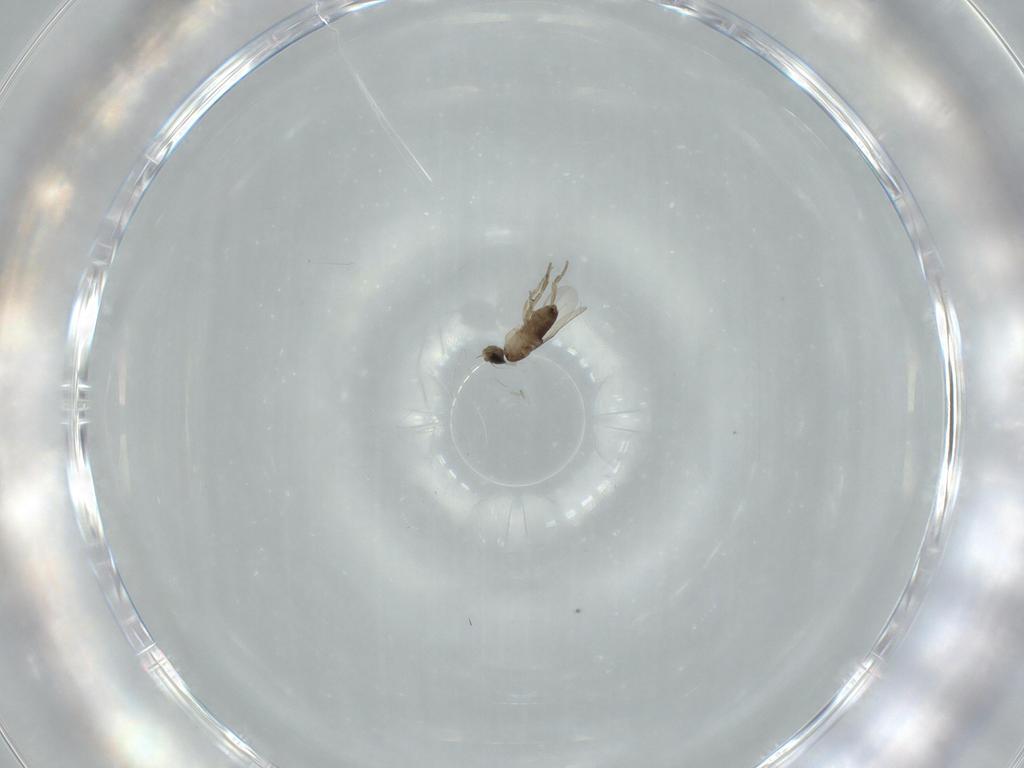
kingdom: Animalia
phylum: Arthropoda
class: Insecta
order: Diptera
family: Phoridae
